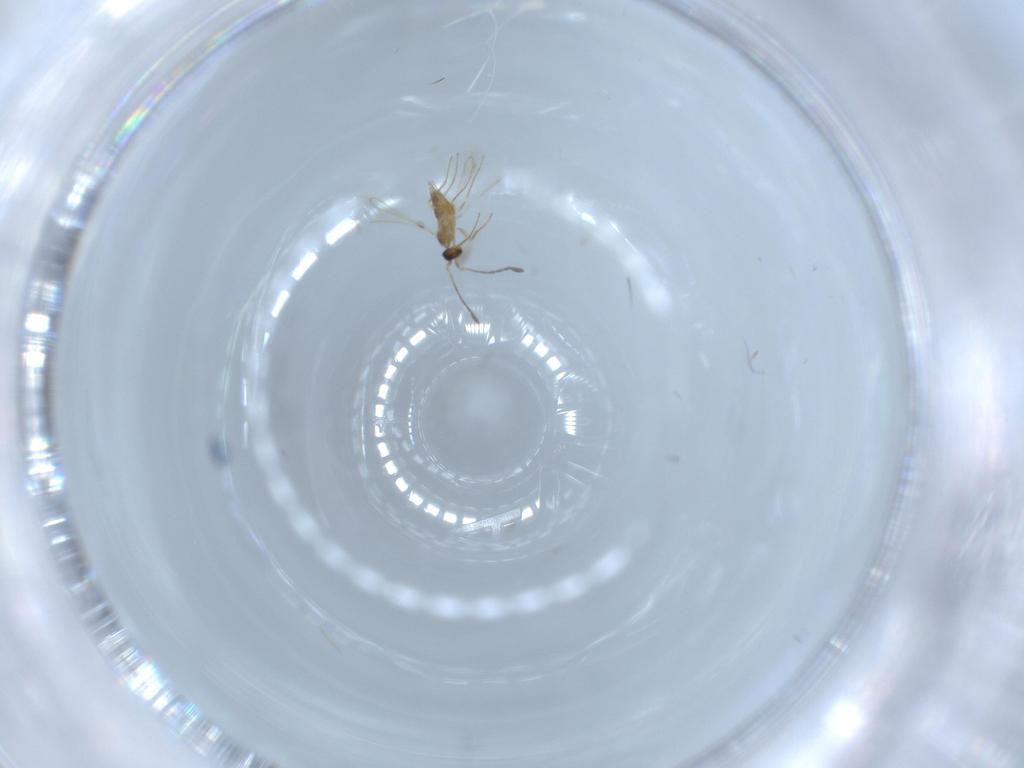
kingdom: Animalia
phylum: Arthropoda
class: Insecta
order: Hymenoptera
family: Mymaridae
